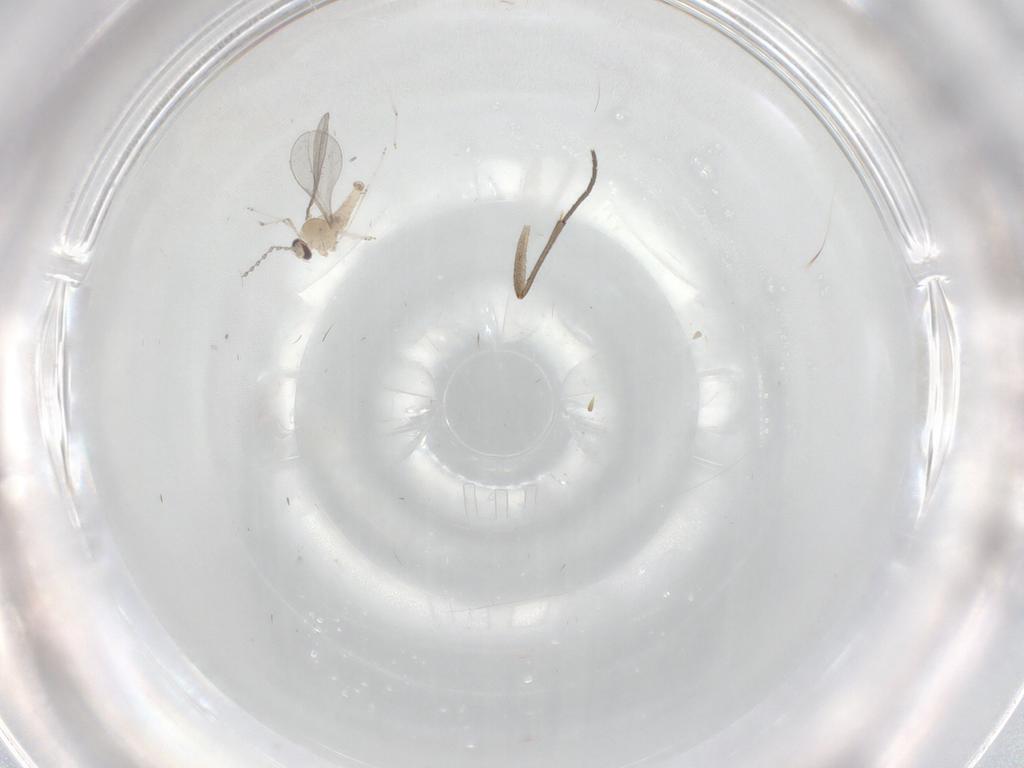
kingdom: Animalia
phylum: Arthropoda
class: Insecta
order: Diptera
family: Cecidomyiidae
